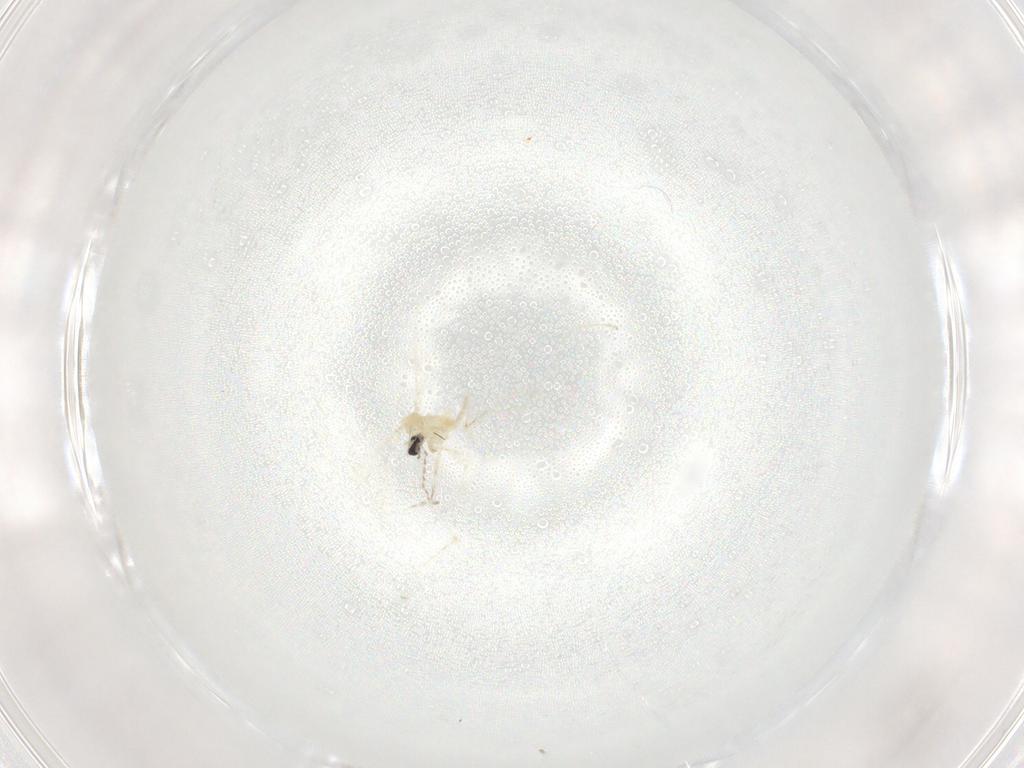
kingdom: Animalia
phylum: Arthropoda
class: Insecta
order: Diptera
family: Cecidomyiidae
